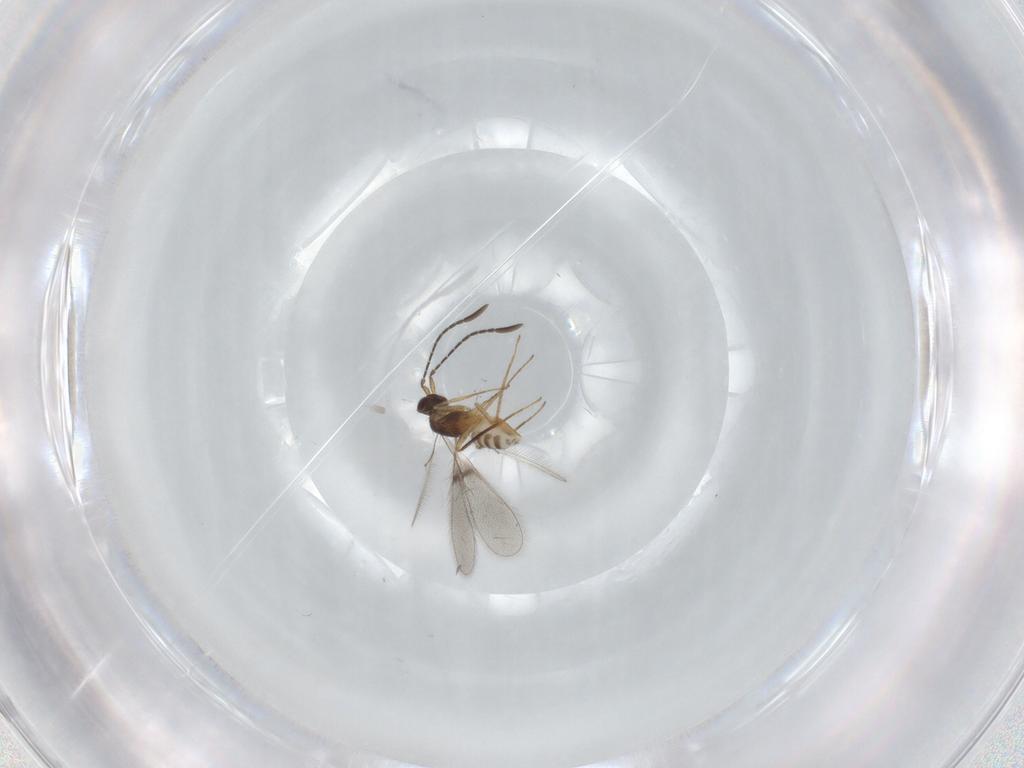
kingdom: Animalia
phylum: Arthropoda
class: Insecta
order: Hymenoptera
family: Mymaridae
